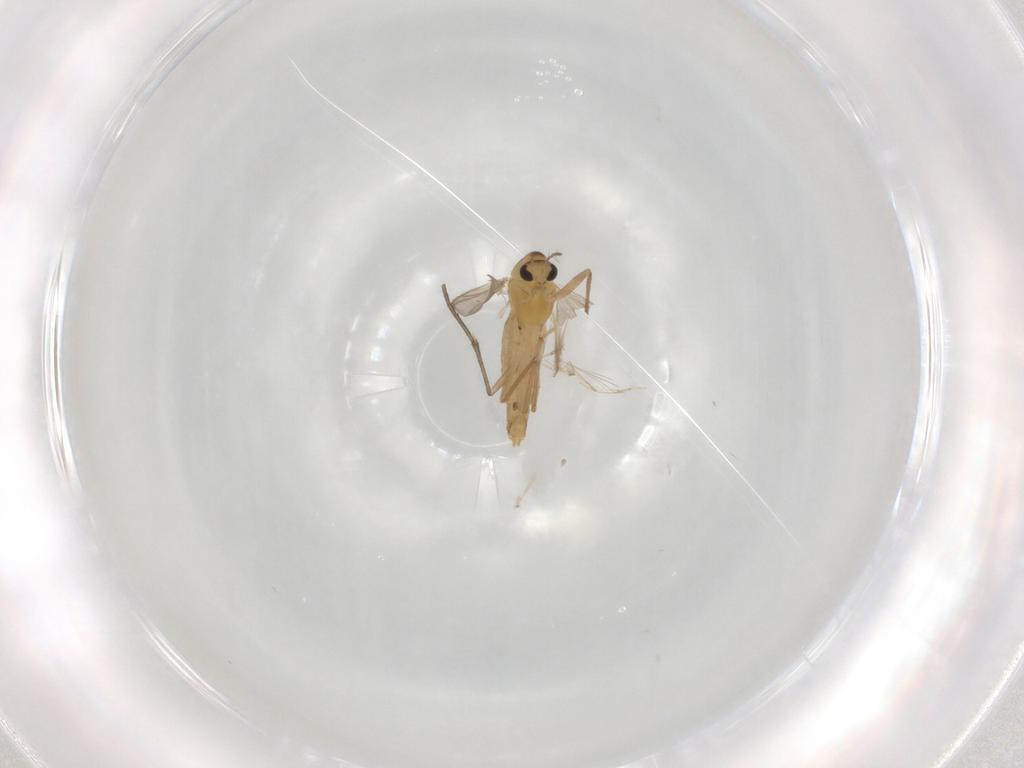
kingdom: Animalia
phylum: Arthropoda
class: Insecta
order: Diptera
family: Chironomidae
